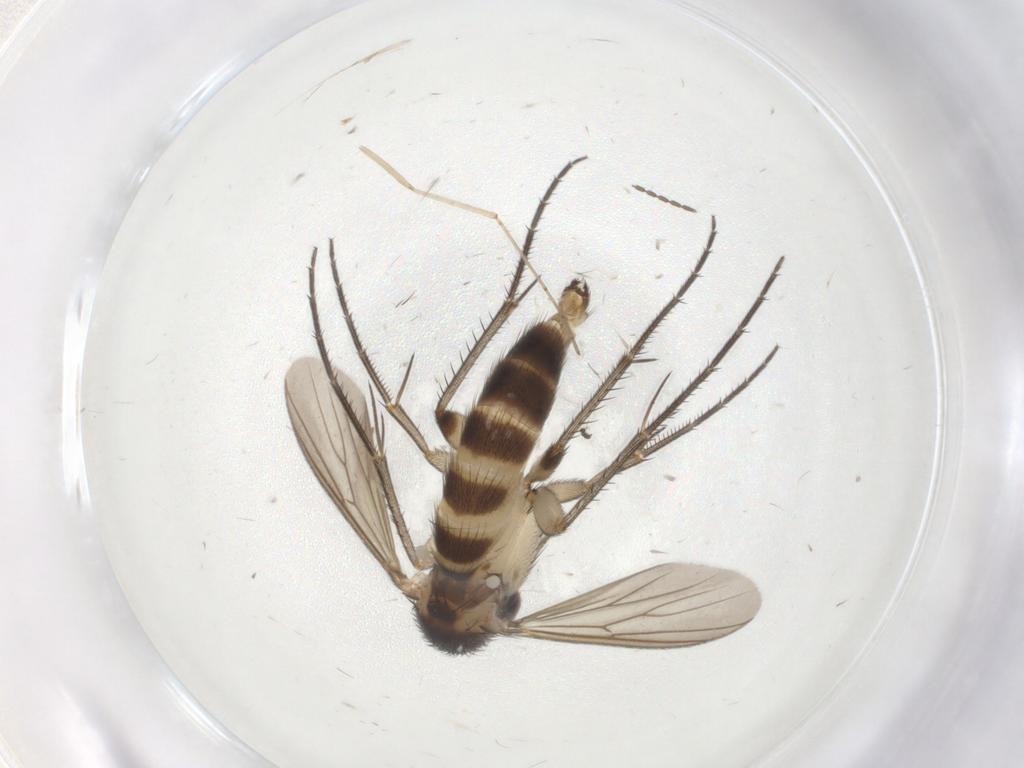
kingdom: Animalia
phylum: Arthropoda
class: Insecta
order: Diptera
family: Mycetophilidae
